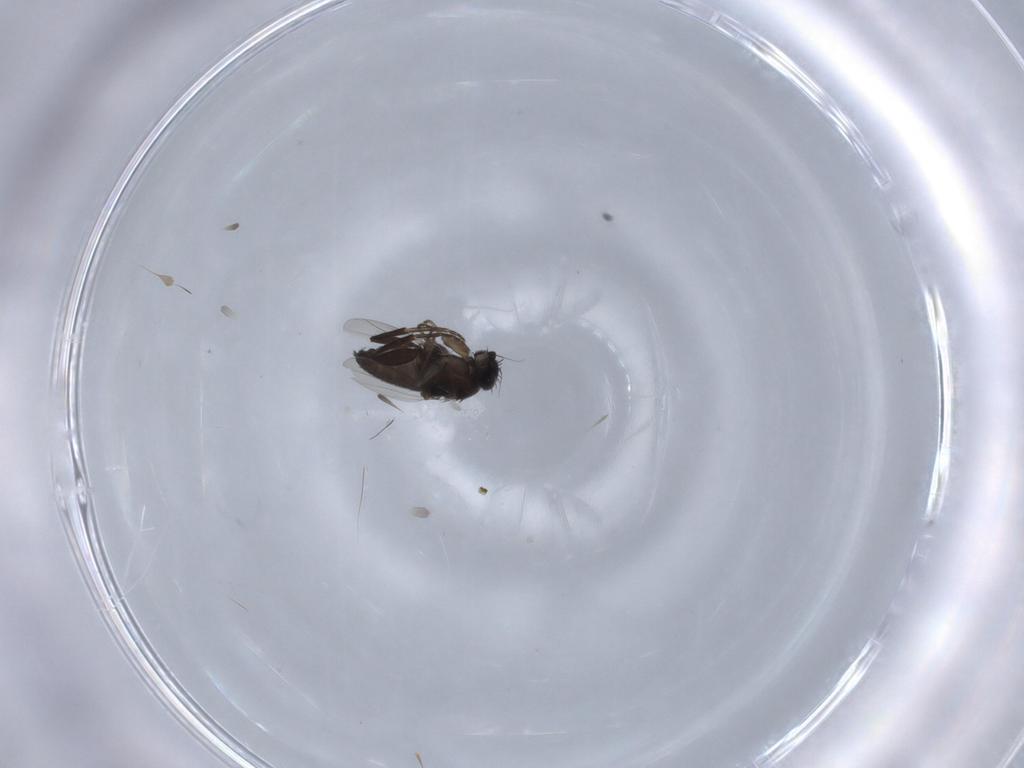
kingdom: Animalia
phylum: Arthropoda
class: Insecta
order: Diptera
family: Phoridae
